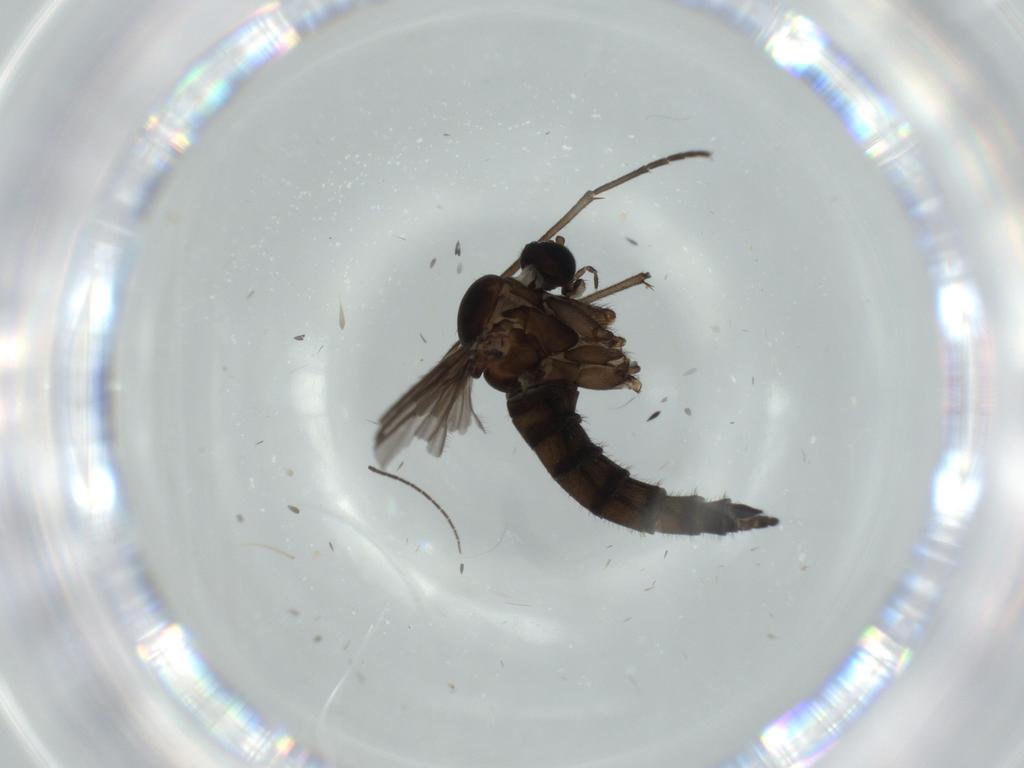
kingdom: Animalia
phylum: Arthropoda
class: Insecta
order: Diptera
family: Sciaridae
